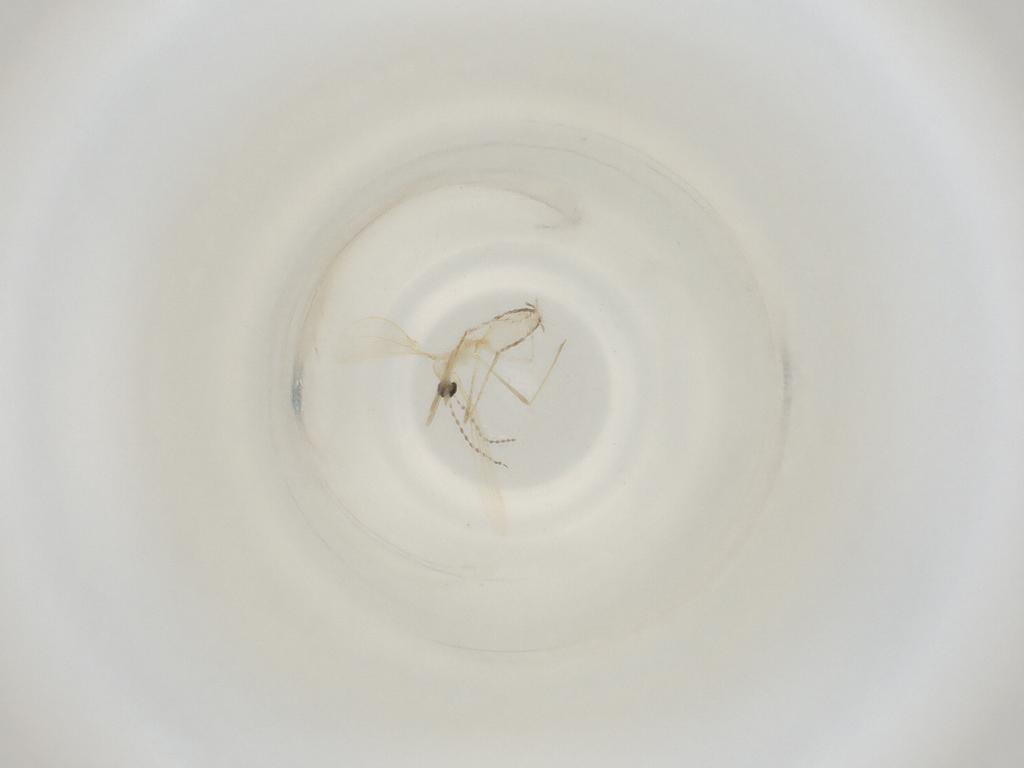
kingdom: Animalia
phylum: Arthropoda
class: Insecta
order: Diptera
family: Cecidomyiidae
